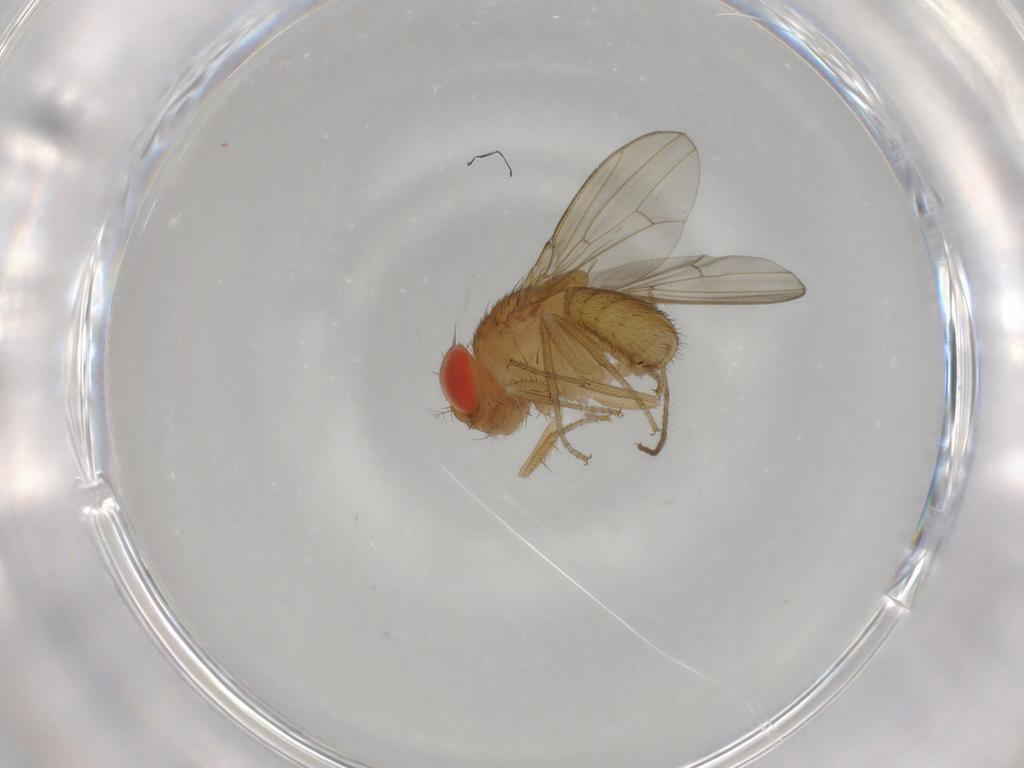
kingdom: Animalia
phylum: Arthropoda
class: Insecta
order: Diptera
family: Drosophilidae
